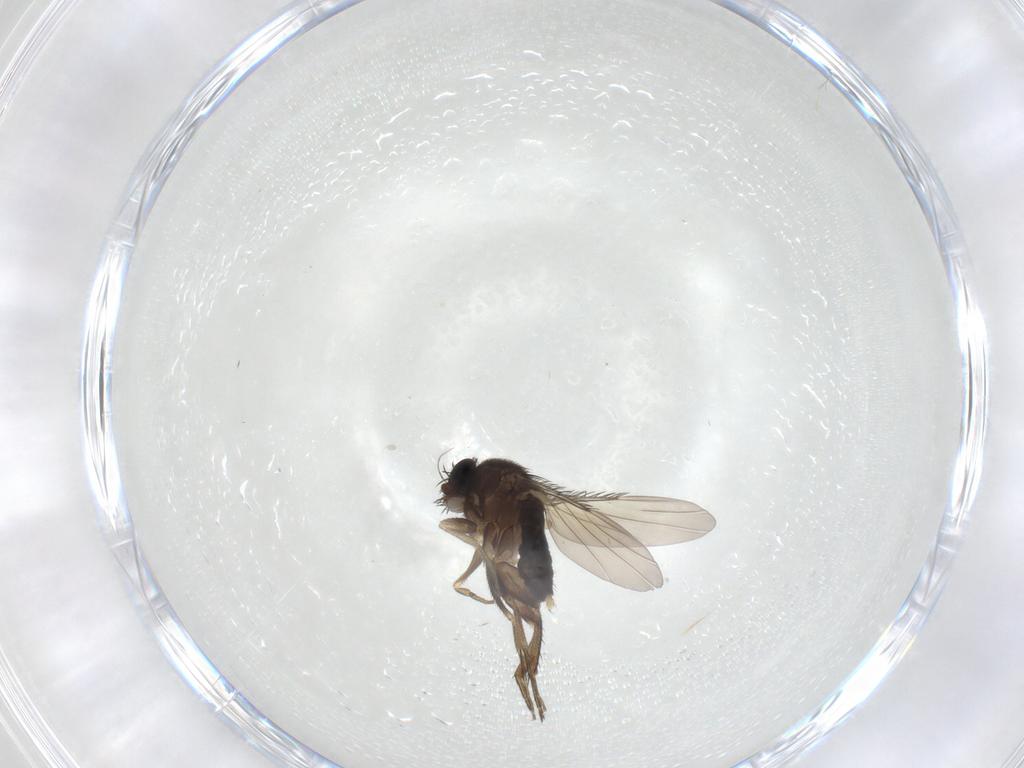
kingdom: Animalia
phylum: Arthropoda
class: Insecta
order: Diptera
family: Phoridae
